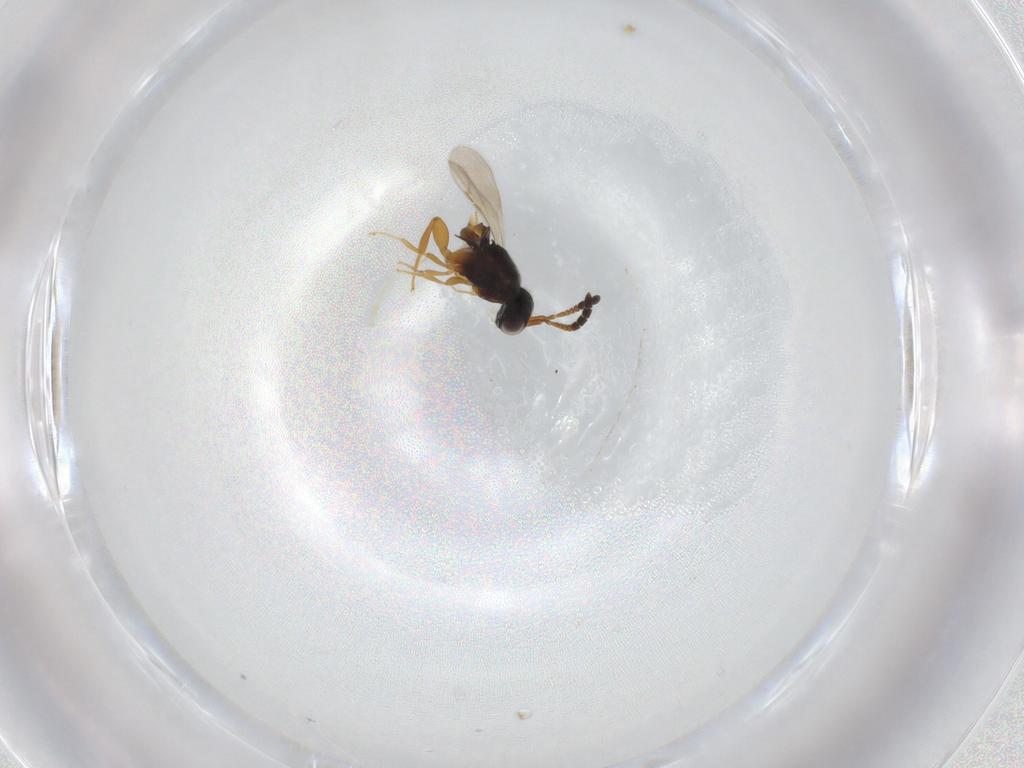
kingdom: Animalia
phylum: Arthropoda
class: Insecta
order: Hymenoptera
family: Ceraphronidae
